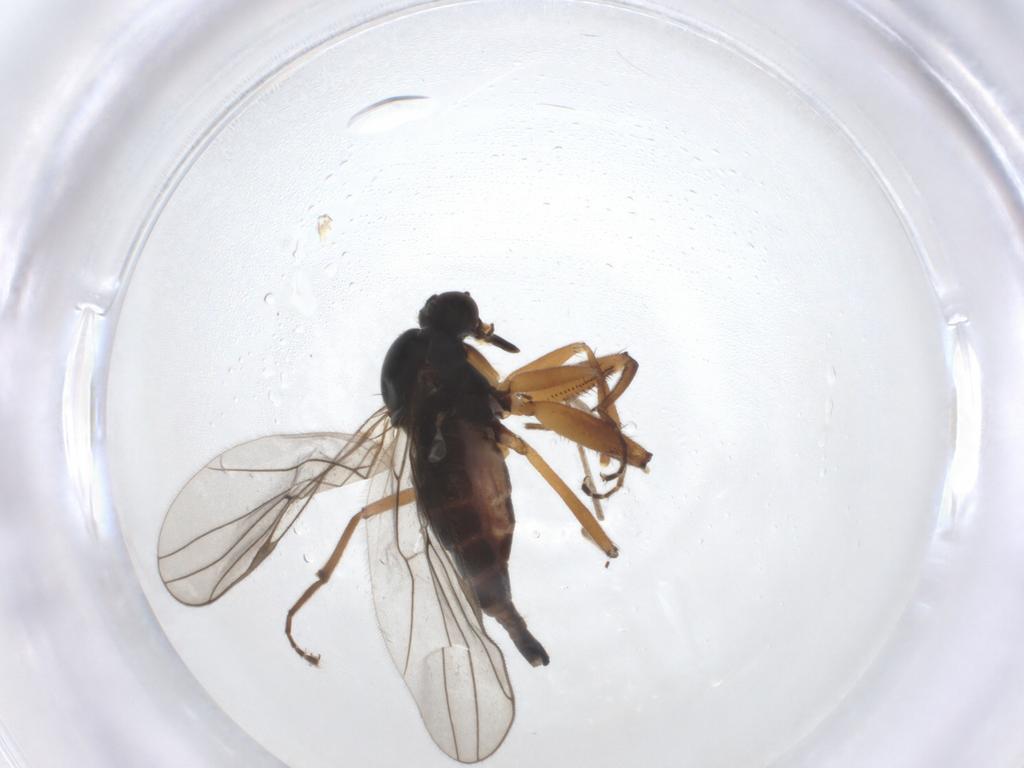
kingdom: Animalia
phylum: Arthropoda
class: Insecta
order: Diptera
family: Hybotidae
